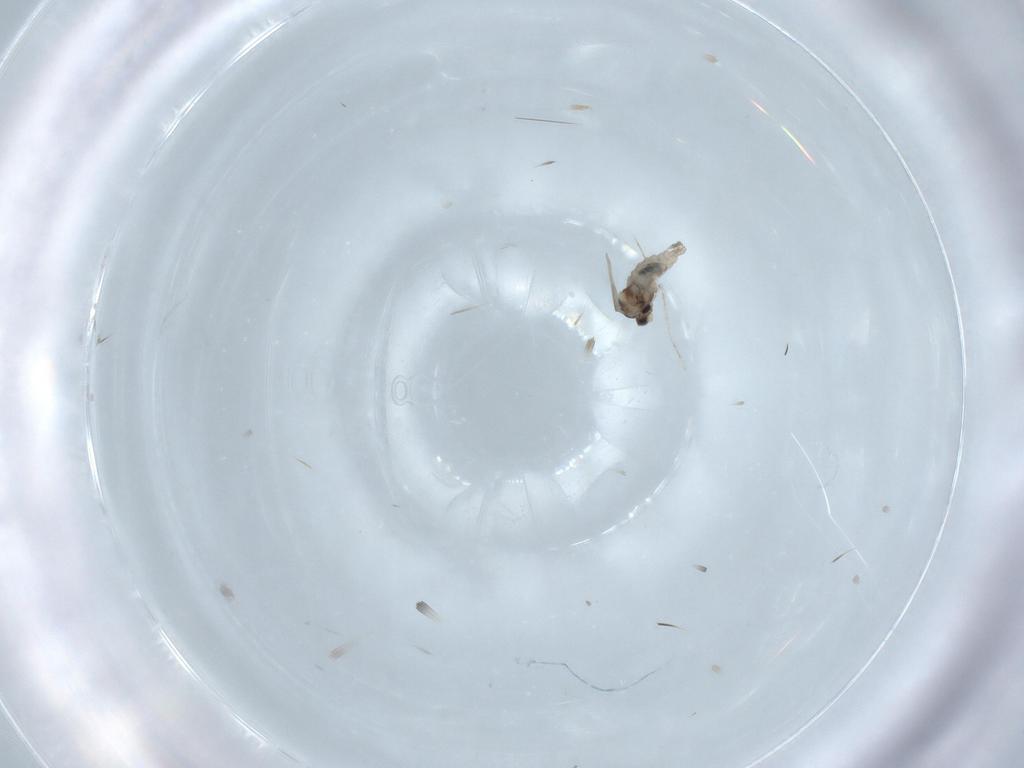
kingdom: Animalia
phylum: Arthropoda
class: Insecta
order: Diptera
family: Cecidomyiidae
